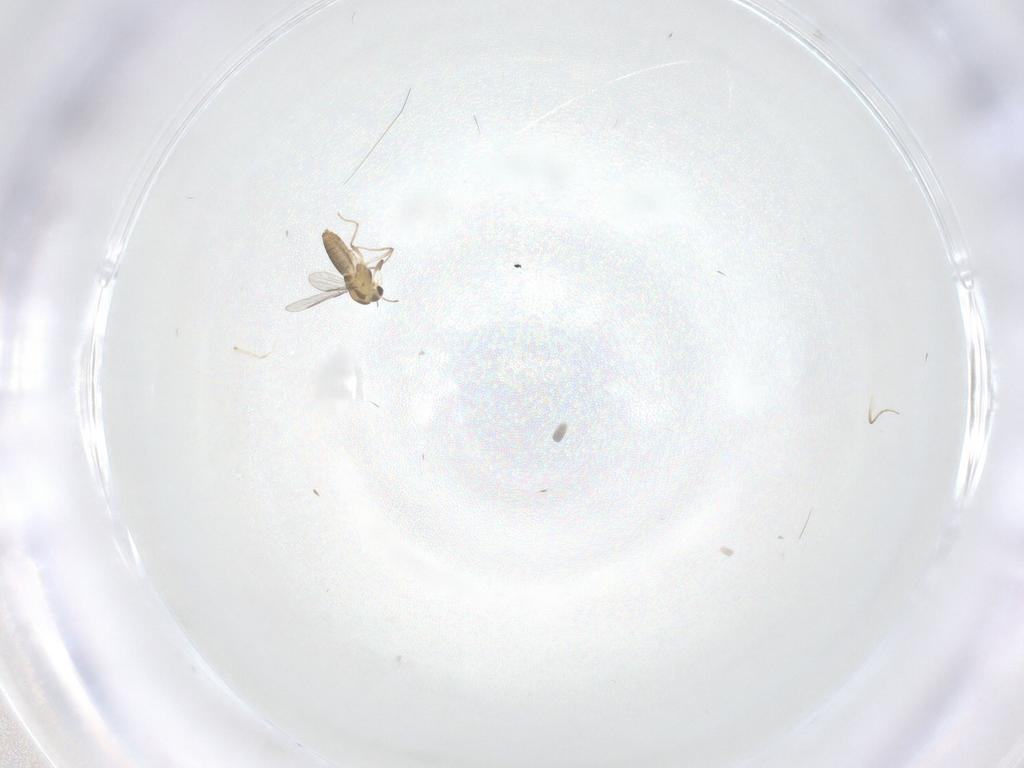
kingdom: Animalia
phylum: Arthropoda
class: Insecta
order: Diptera
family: Chironomidae
